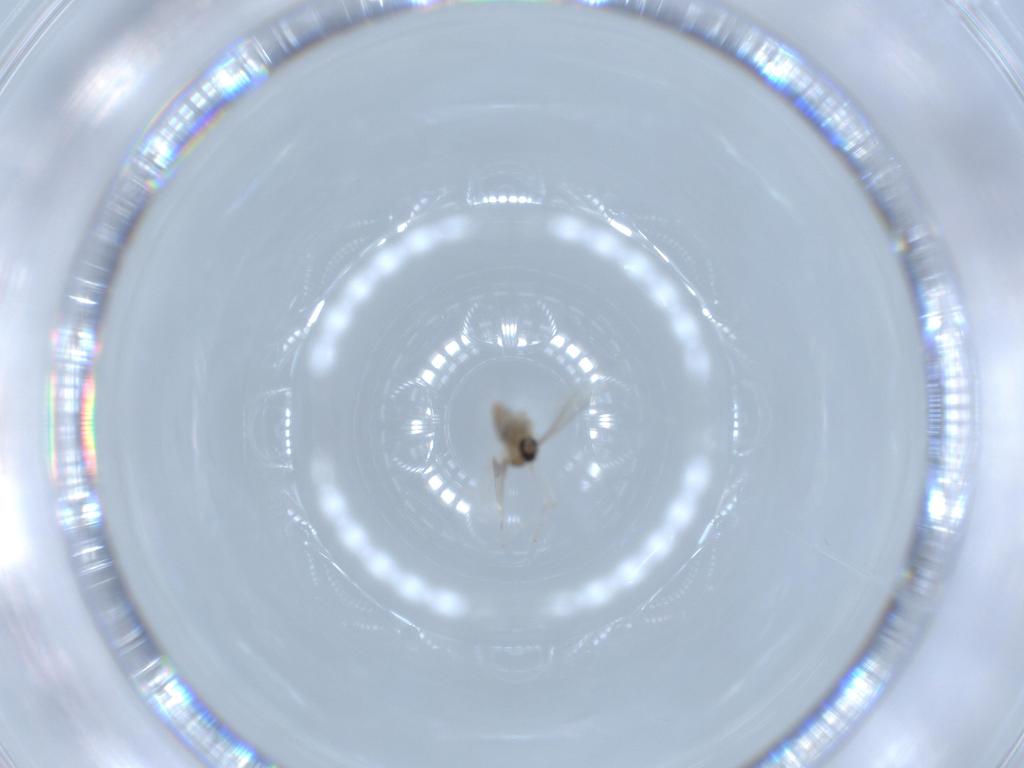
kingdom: Animalia
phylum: Arthropoda
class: Insecta
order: Diptera
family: Cecidomyiidae
